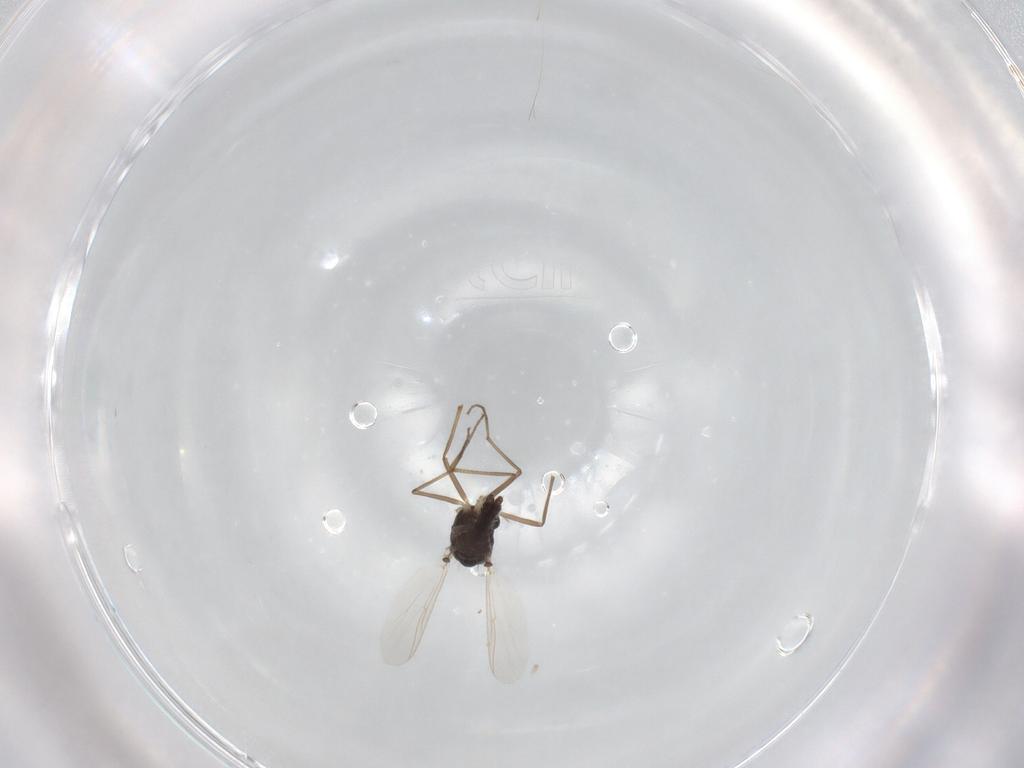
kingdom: Animalia
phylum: Arthropoda
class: Insecta
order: Diptera
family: Chironomidae
